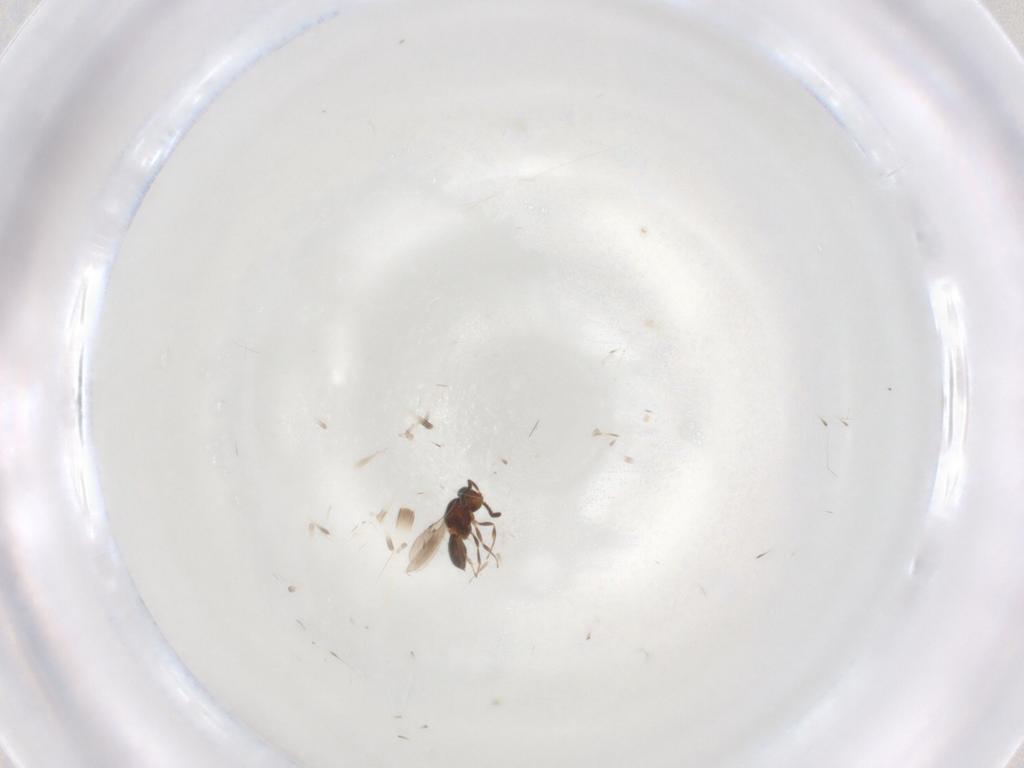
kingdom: Animalia
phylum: Arthropoda
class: Insecta
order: Hymenoptera
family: Scelionidae
